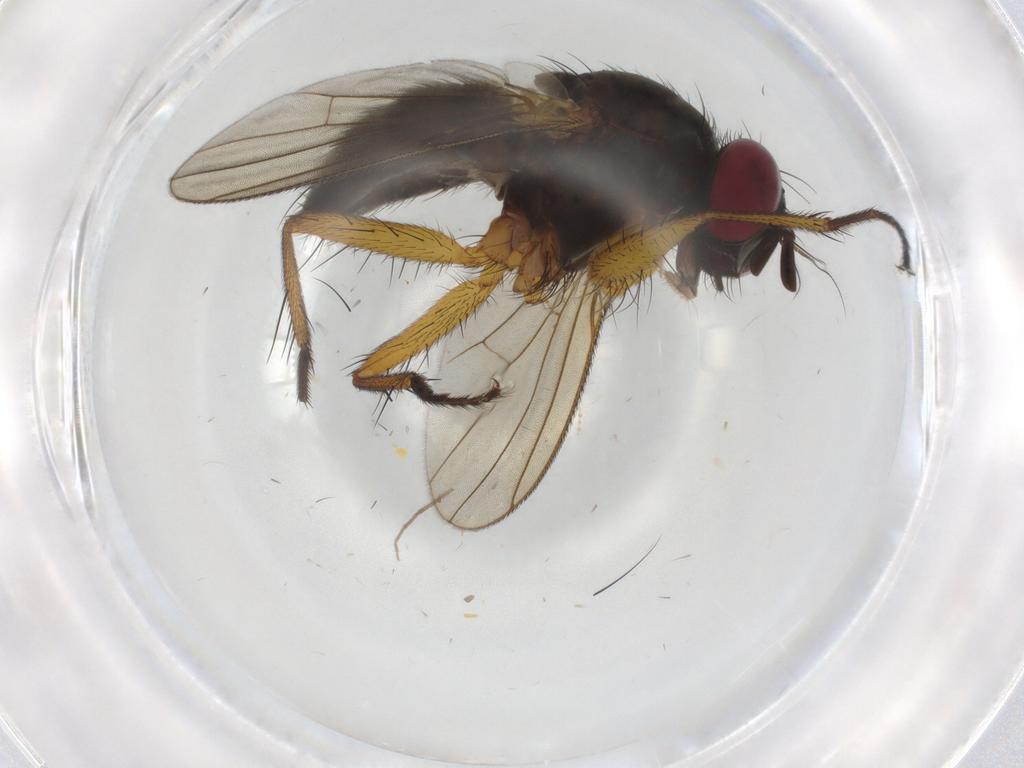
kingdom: Animalia
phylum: Arthropoda
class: Insecta
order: Diptera
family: Muscidae
